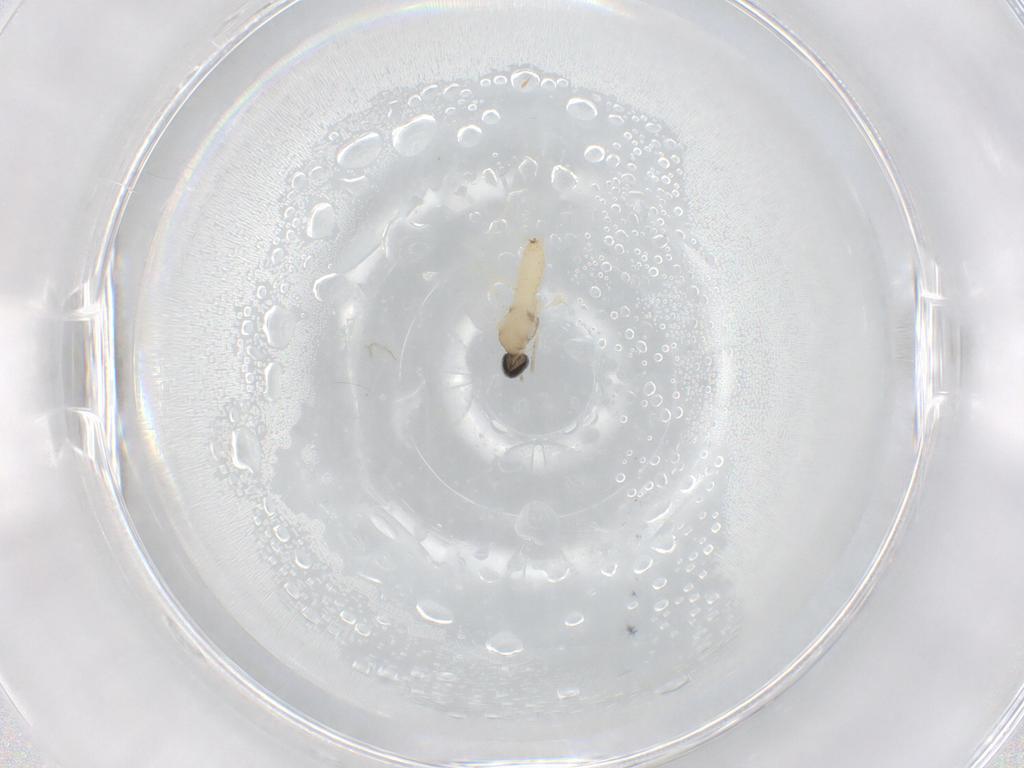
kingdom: Animalia
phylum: Arthropoda
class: Insecta
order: Diptera
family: Cecidomyiidae
